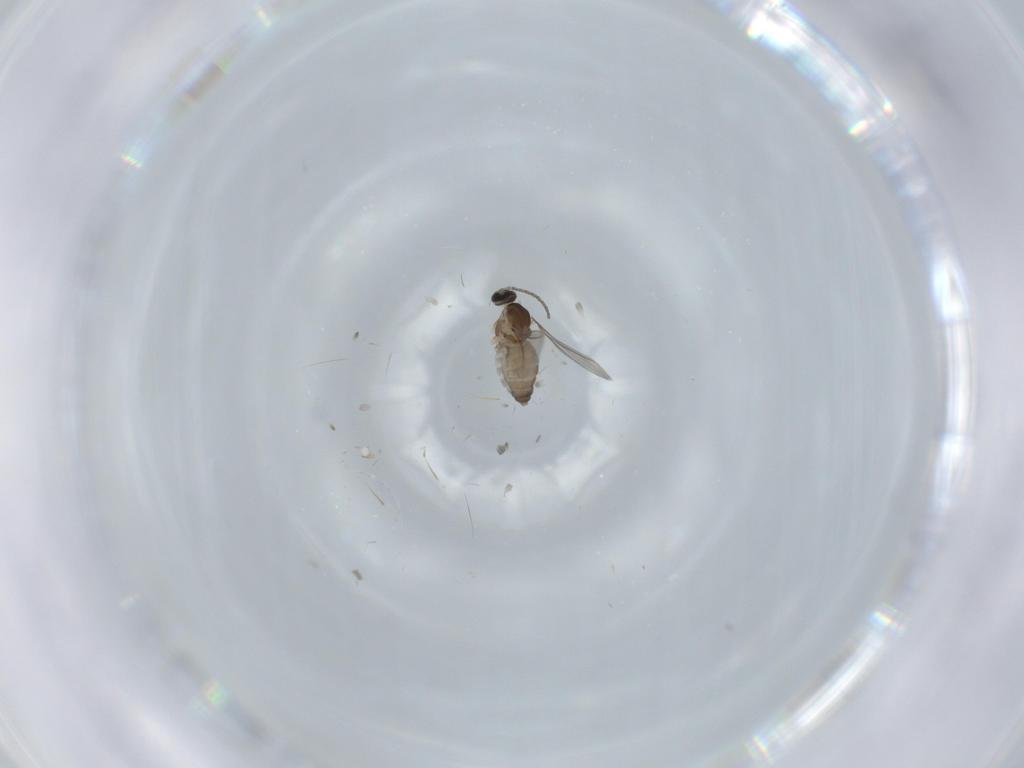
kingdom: Animalia
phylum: Arthropoda
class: Insecta
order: Diptera
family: Cecidomyiidae
